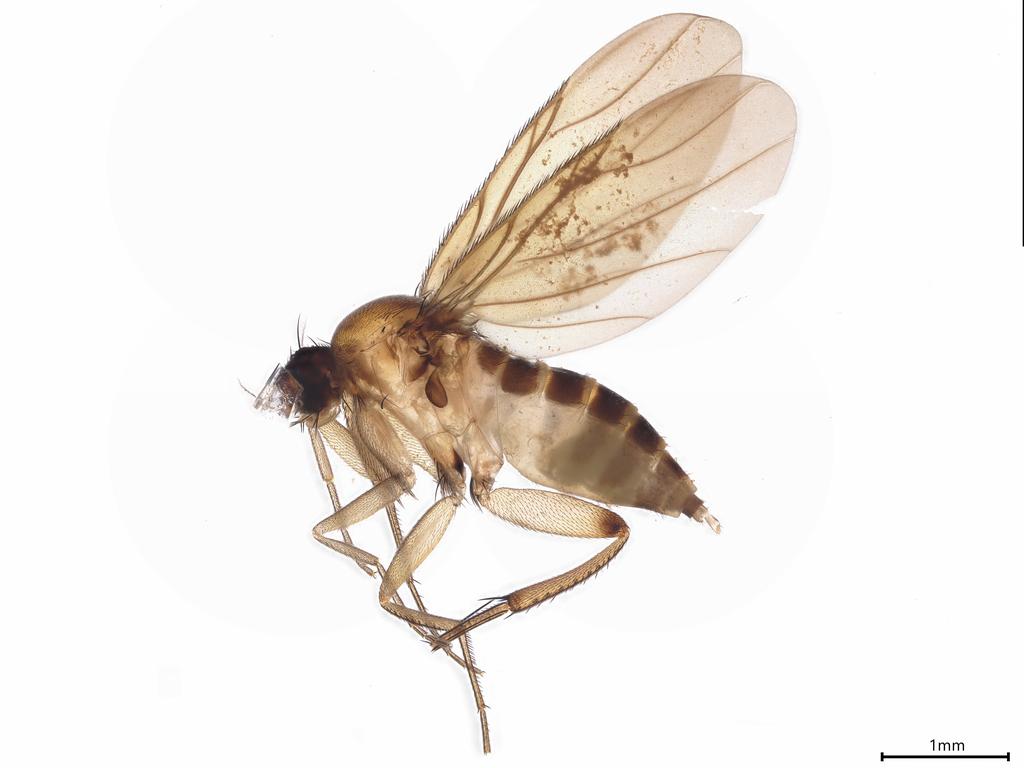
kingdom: Animalia
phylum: Arthropoda
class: Insecta
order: Diptera
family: Phoridae
